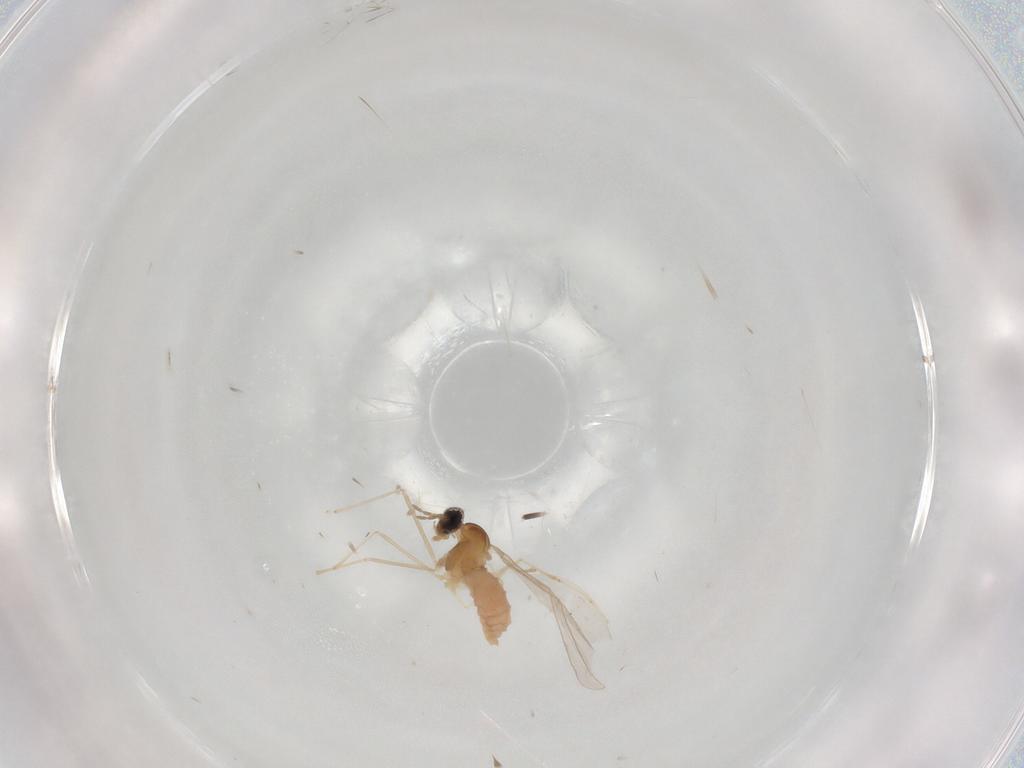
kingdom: Animalia
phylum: Arthropoda
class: Insecta
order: Diptera
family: Cecidomyiidae
